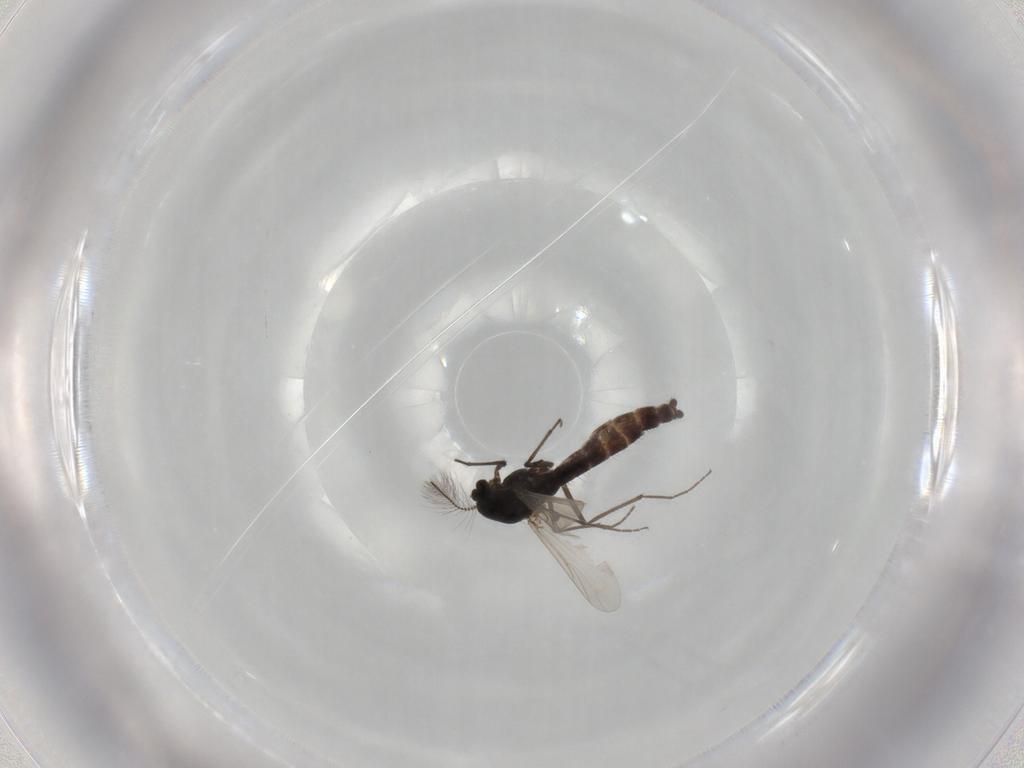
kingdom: Animalia
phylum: Arthropoda
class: Insecta
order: Diptera
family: Chironomidae
